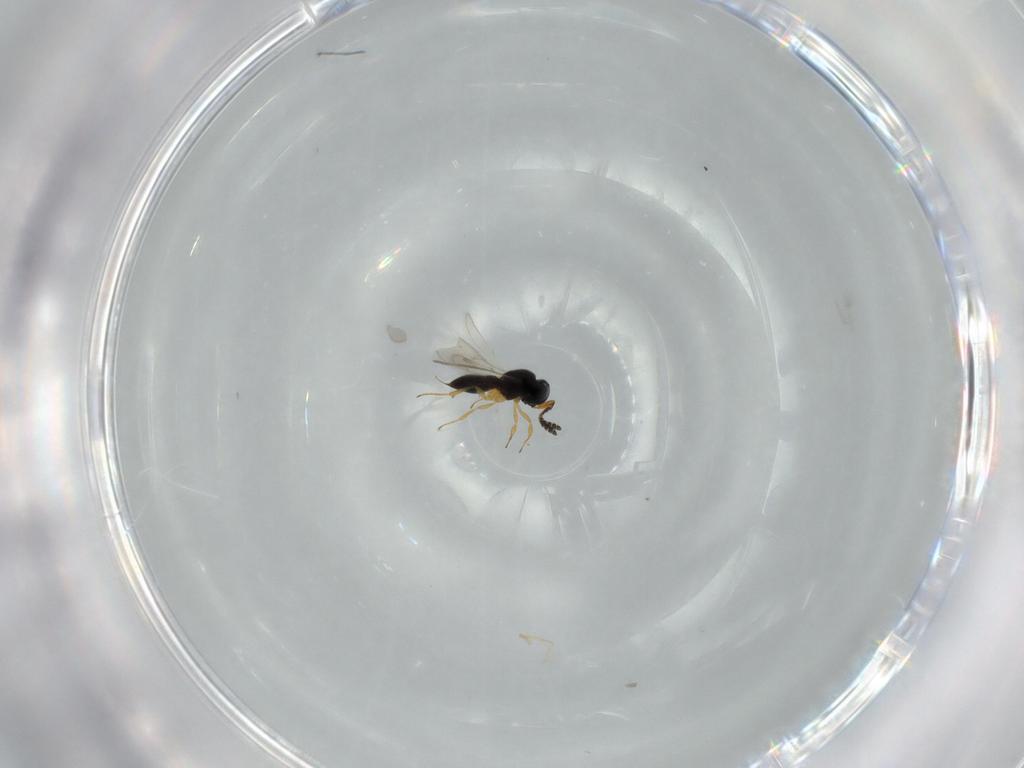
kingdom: Animalia
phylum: Arthropoda
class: Insecta
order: Hymenoptera
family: Scelionidae
